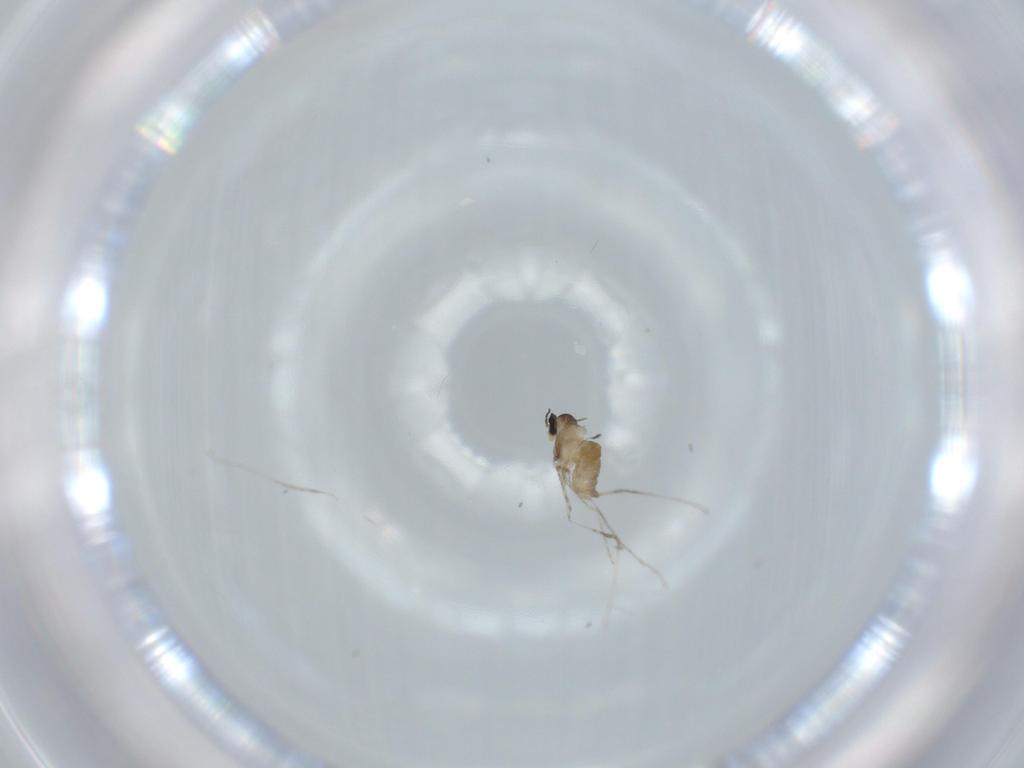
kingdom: Animalia
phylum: Arthropoda
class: Insecta
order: Diptera
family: Cecidomyiidae
